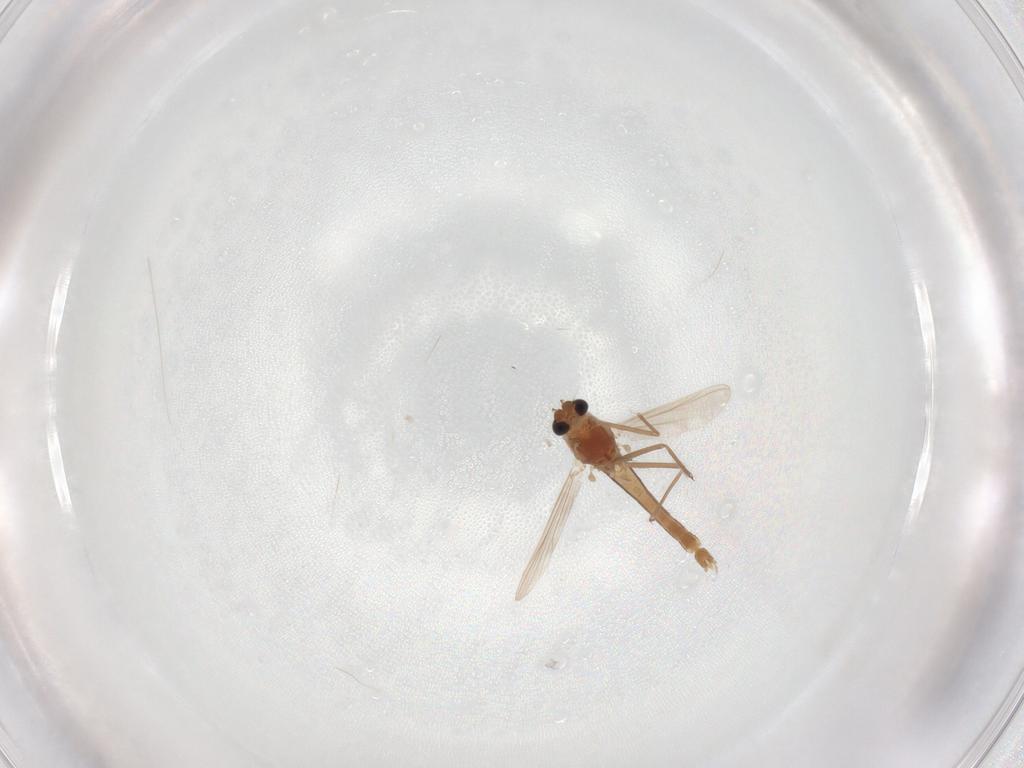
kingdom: Animalia
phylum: Arthropoda
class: Insecta
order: Diptera
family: Chironomidae
